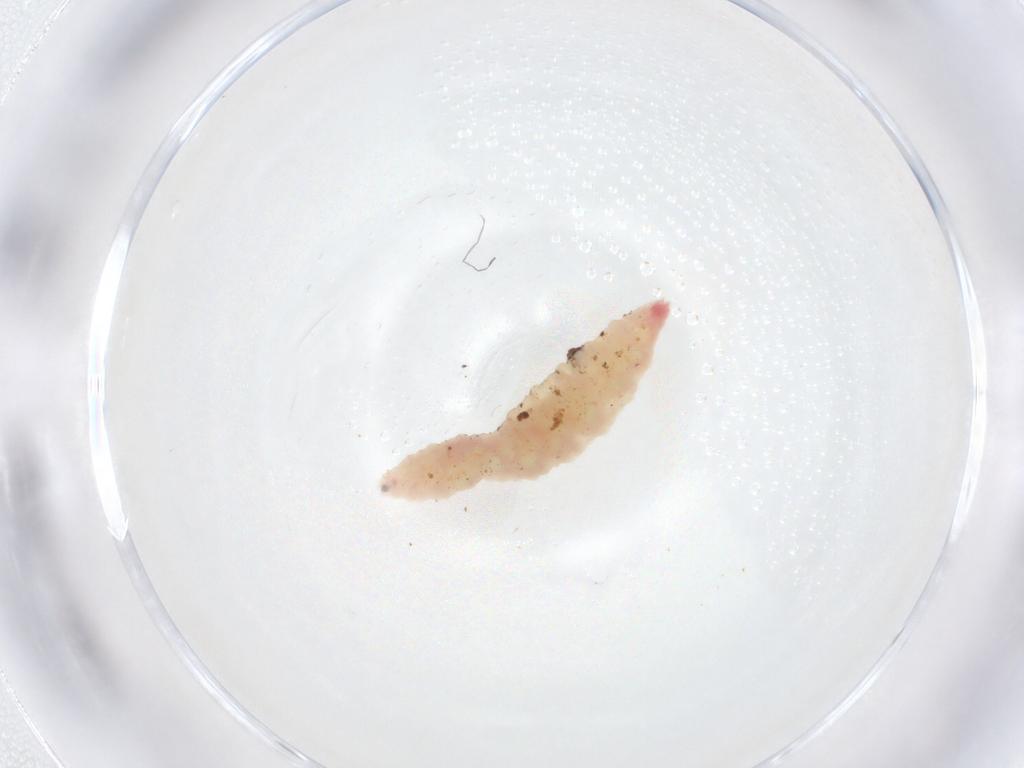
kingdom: Animalia
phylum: Arthropoda
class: Insecta
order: Diptera
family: Cecidomyiidae
